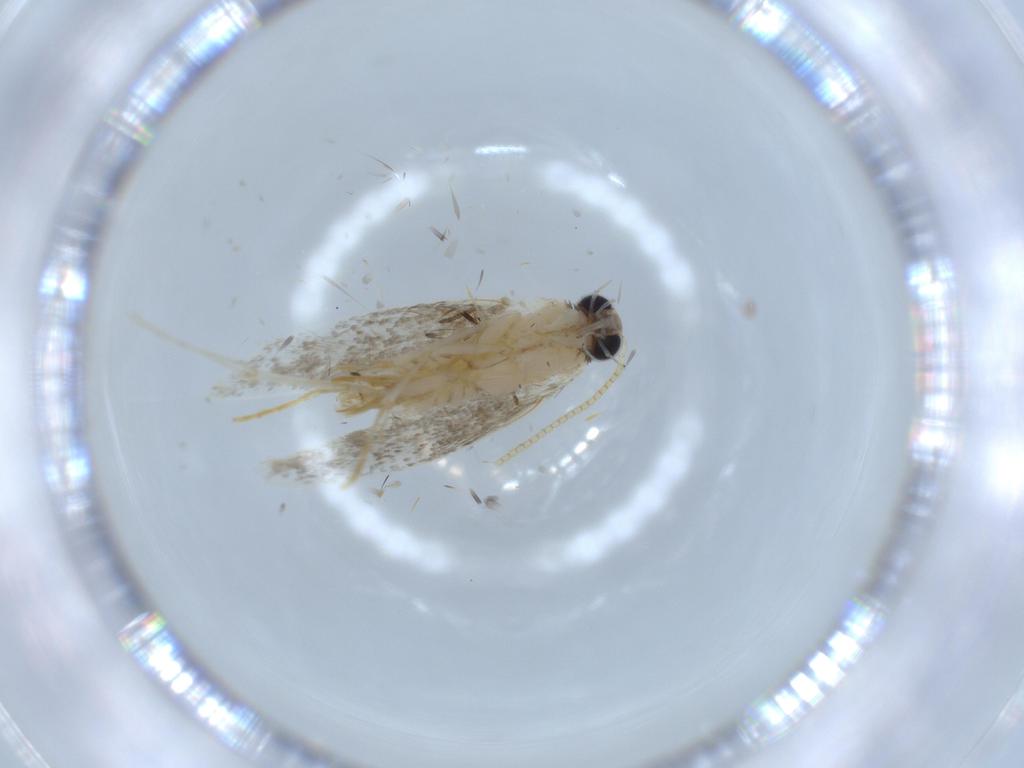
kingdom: Animalia
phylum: Arthropoda
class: Insecta
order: Lepidoptera
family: Tineidae
